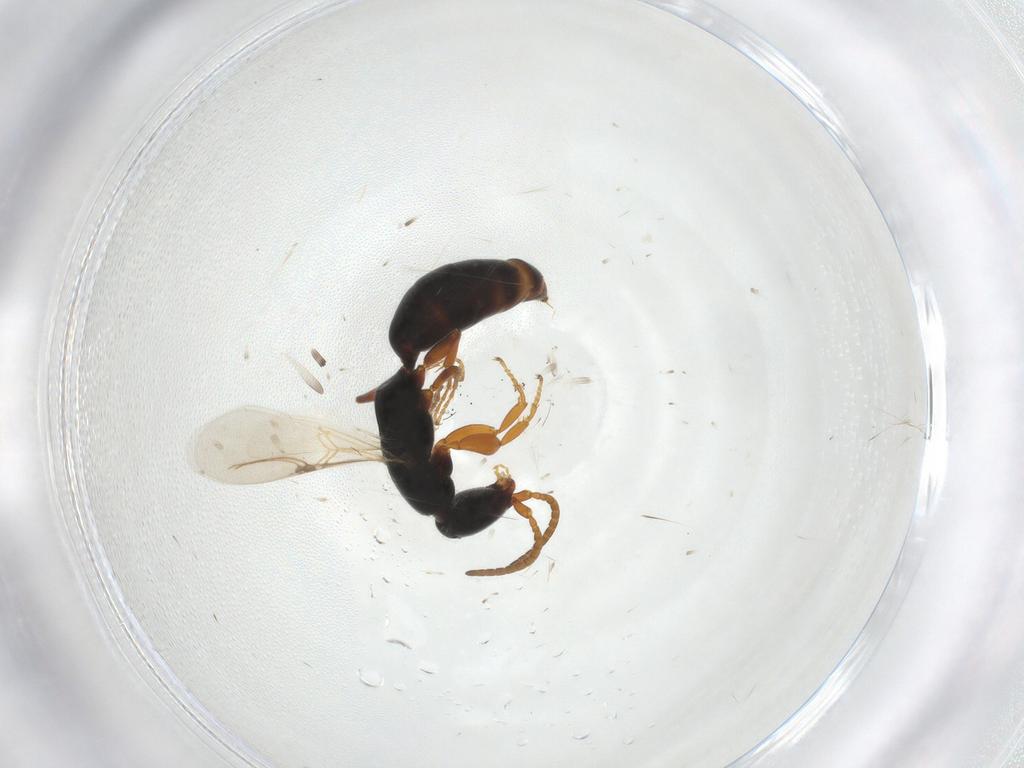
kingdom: Animalia
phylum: Arthropoda
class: Insecta
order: Hymenoptera
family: Bethylidae
